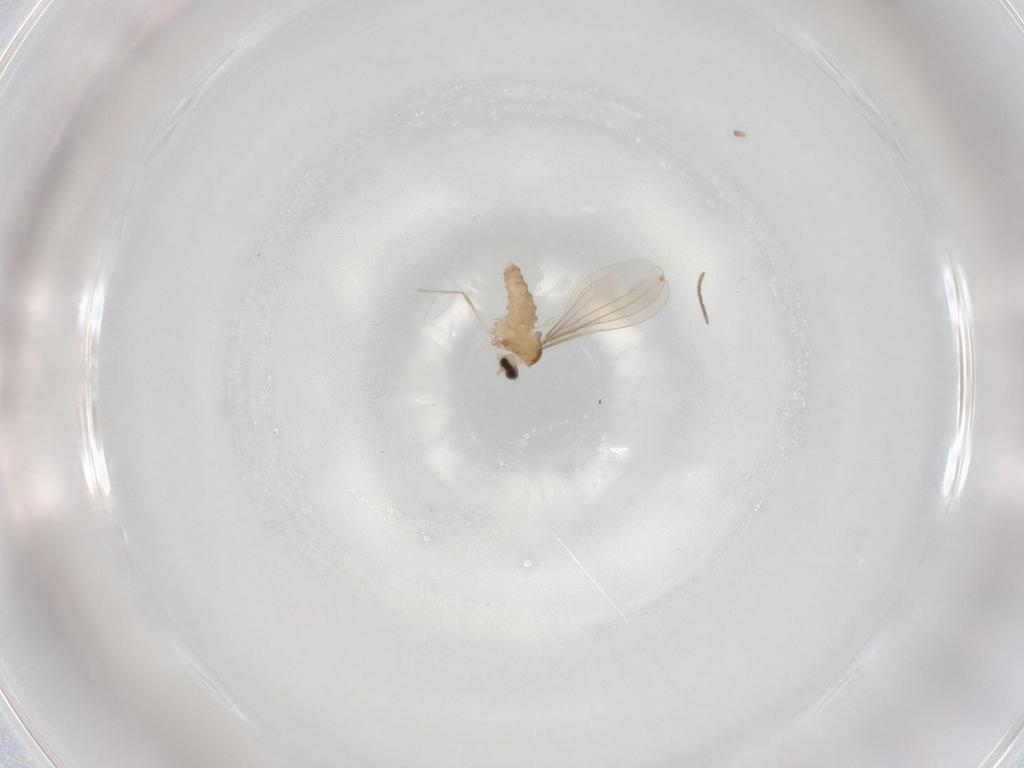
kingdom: Animalia
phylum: Arthropoda
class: Insecta
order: Diptera
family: Sciaridae
